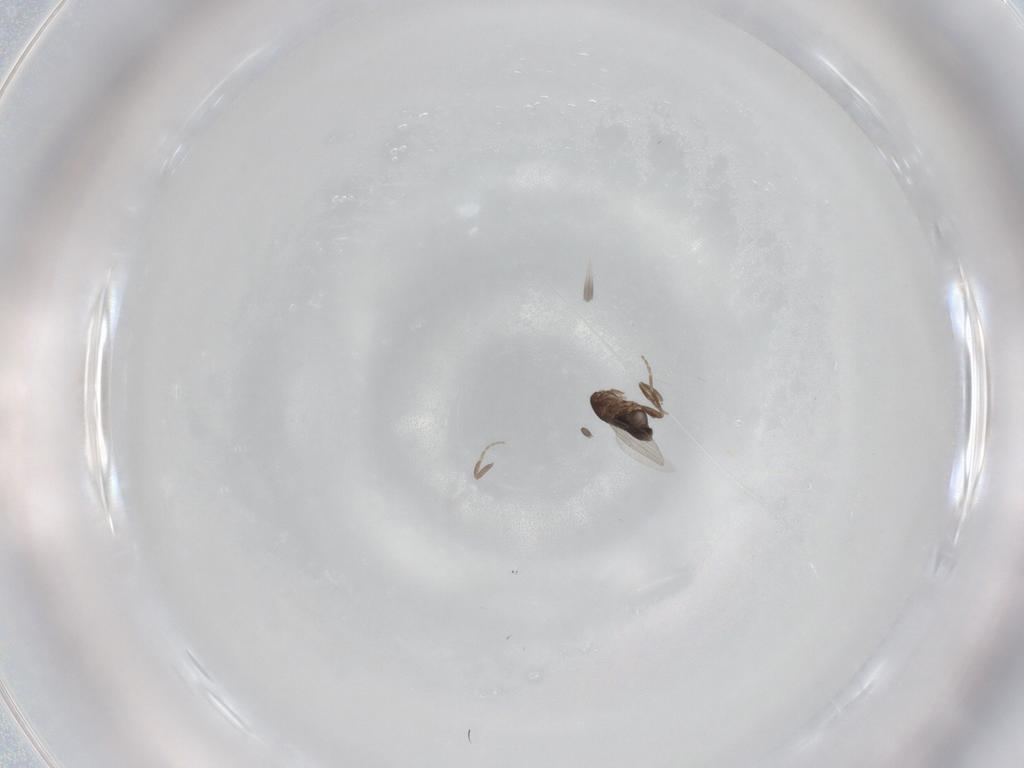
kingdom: Animalia
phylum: Arthropoda
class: Insecta
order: Diptera
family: Phoridae
